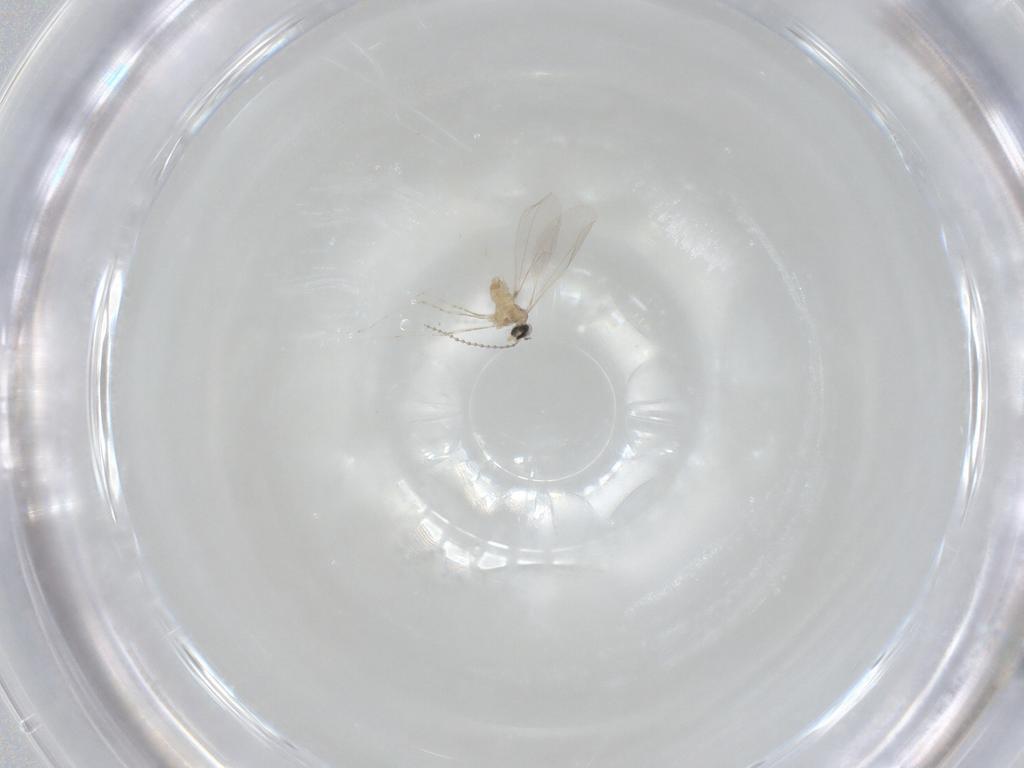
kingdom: Animalia
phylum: Arthropoda
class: Insecta
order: Diptera
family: Cecidomyiidae
